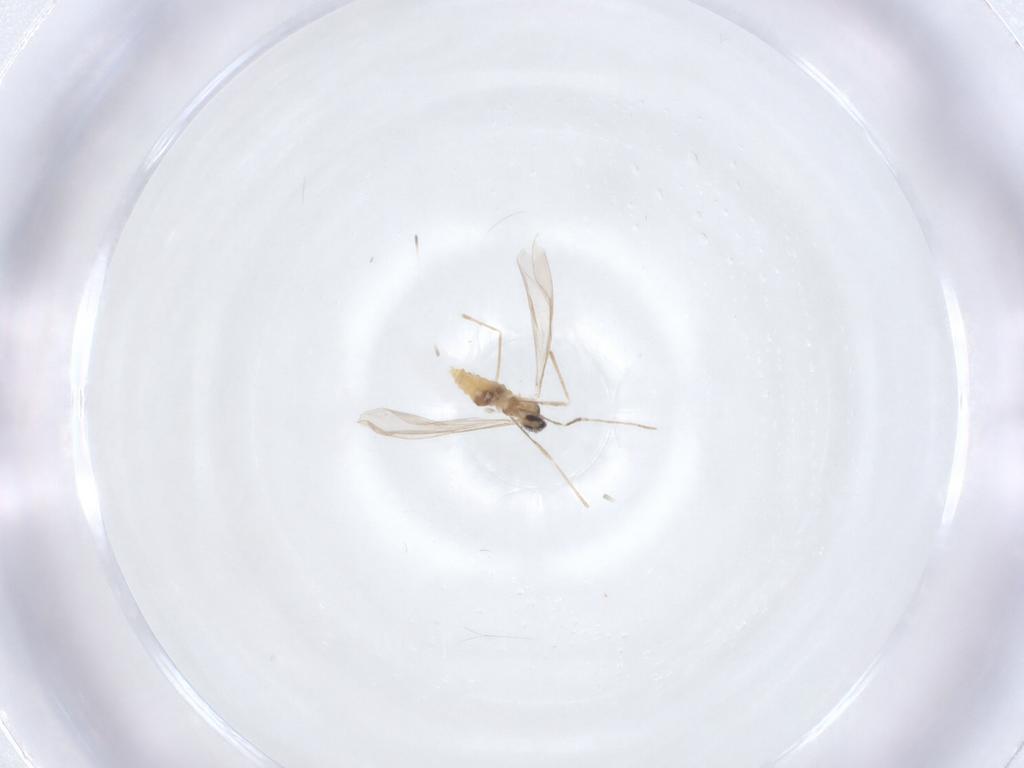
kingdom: Animalia
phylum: Arthropoda
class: Insecta
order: Diptera
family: Cecidomyiidae
